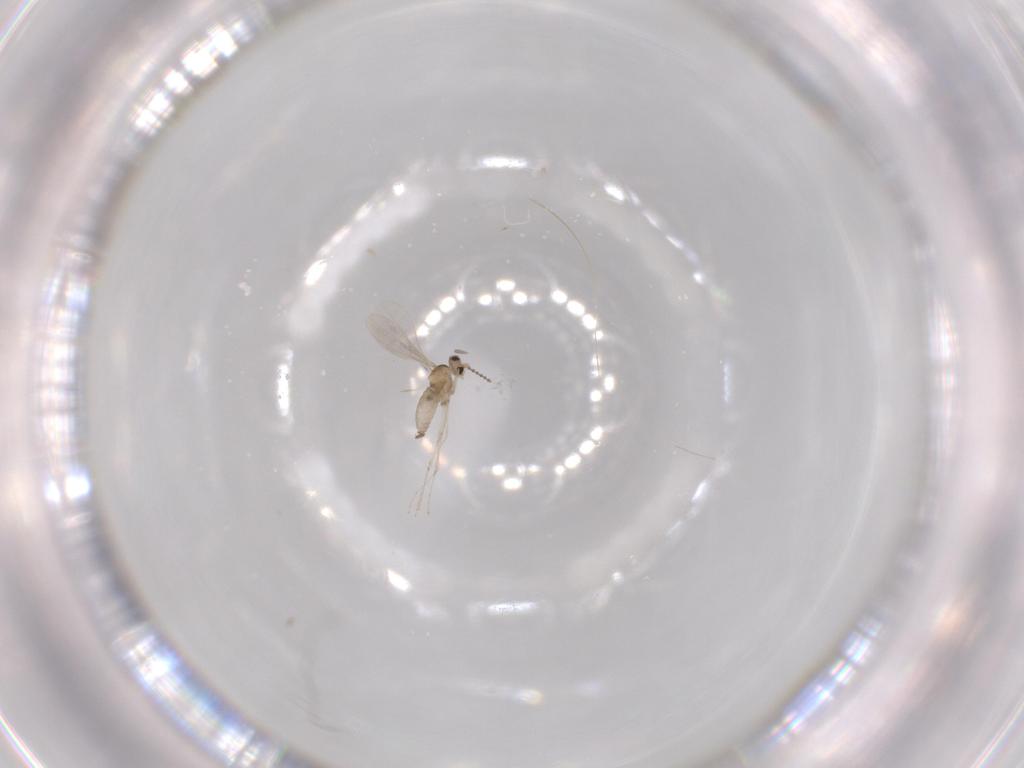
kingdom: Animalia
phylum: Arthropoda
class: Insecta
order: Diptera
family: Cecidomyiidae
